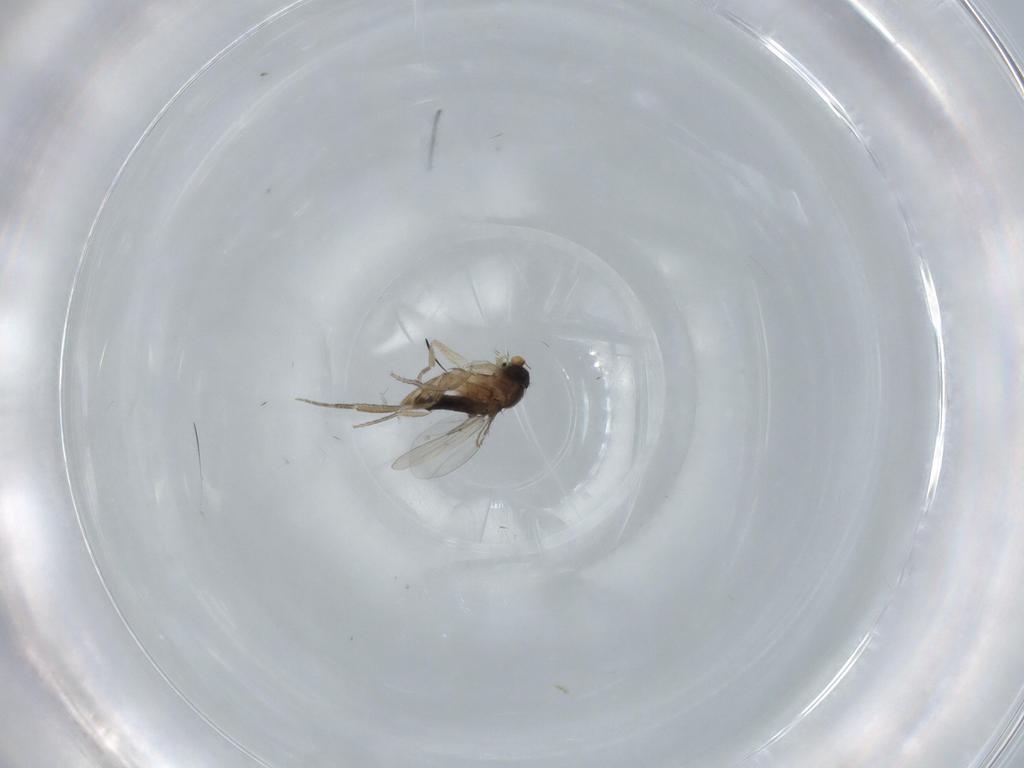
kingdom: Animalia
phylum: Arthropoda
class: Insecta
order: Diptera
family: Phoridae
